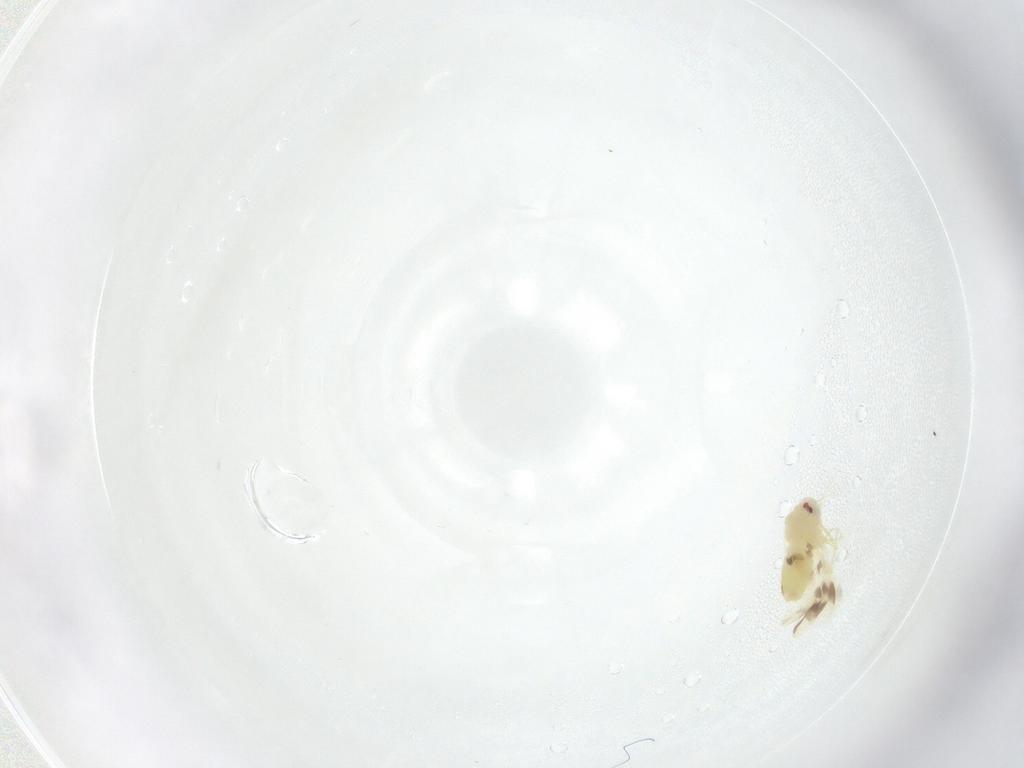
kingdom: Animalia
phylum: Arthropoda
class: Insecta
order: Hemiptera
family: Aleyrodidae
